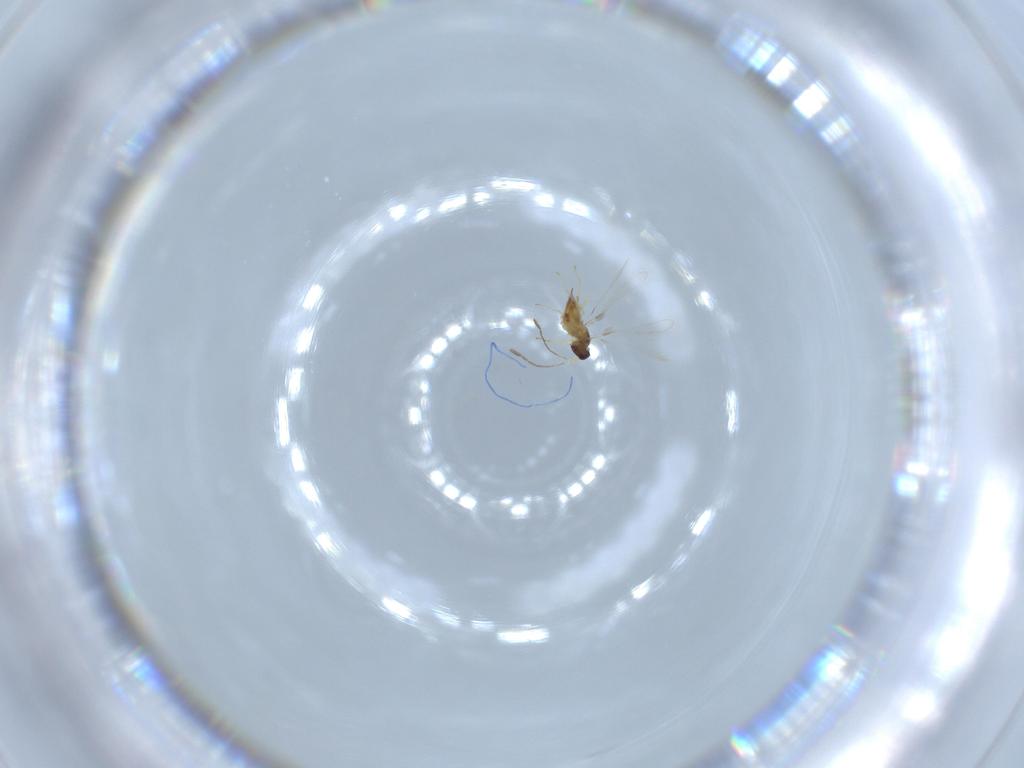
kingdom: Animalia
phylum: Arthropoda
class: Insecta
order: Hymenoptera
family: Mymaridae
